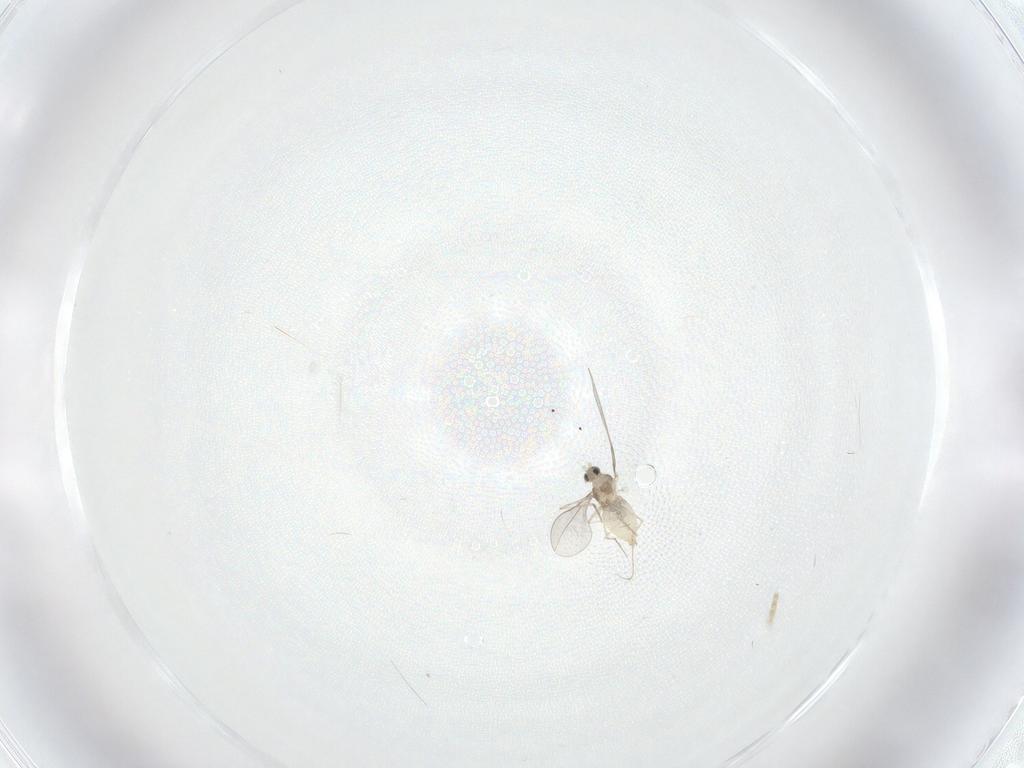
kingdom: Animalia
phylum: Arthropoda
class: Insecta
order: Diptera
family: Cecidomyiidae
